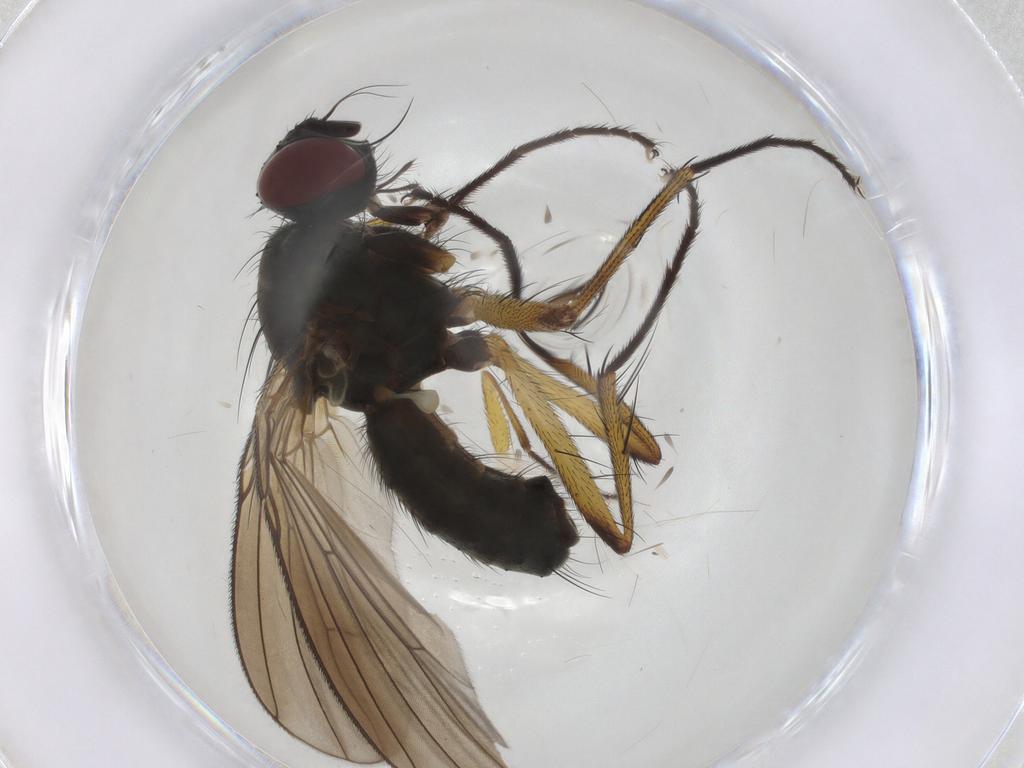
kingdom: Animalia
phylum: Arthropoda
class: Insecta
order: Diptera
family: Muscidae
